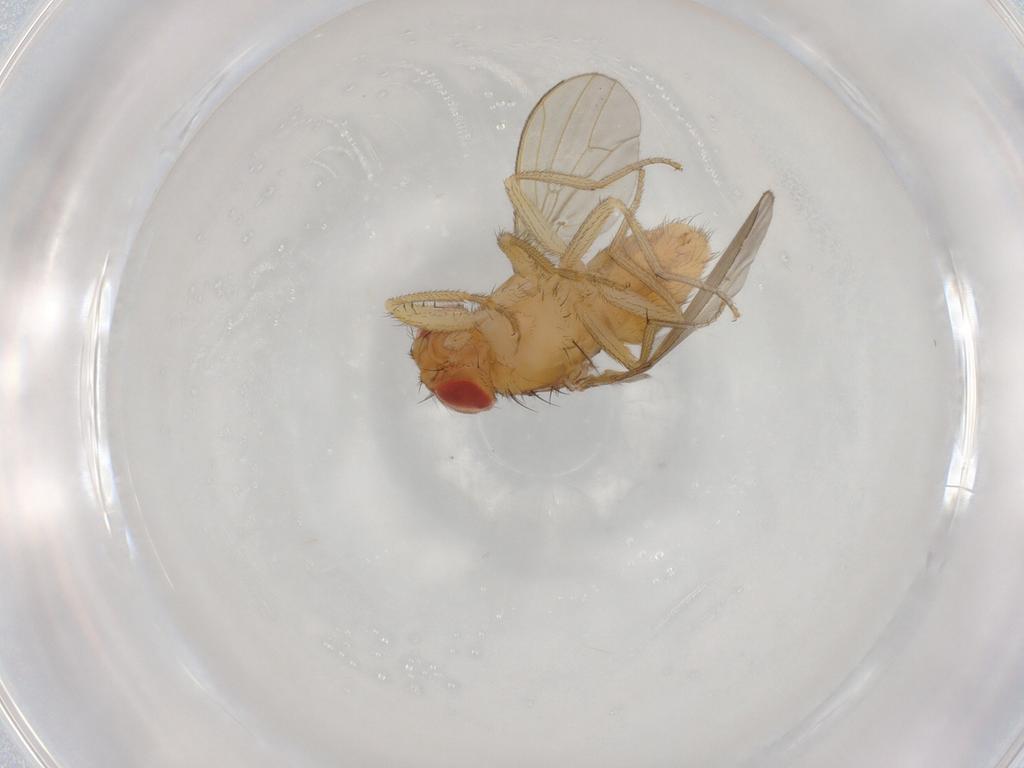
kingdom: Animalia
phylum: Arthropoda
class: Insecta
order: Diptera
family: Drosophilidae
